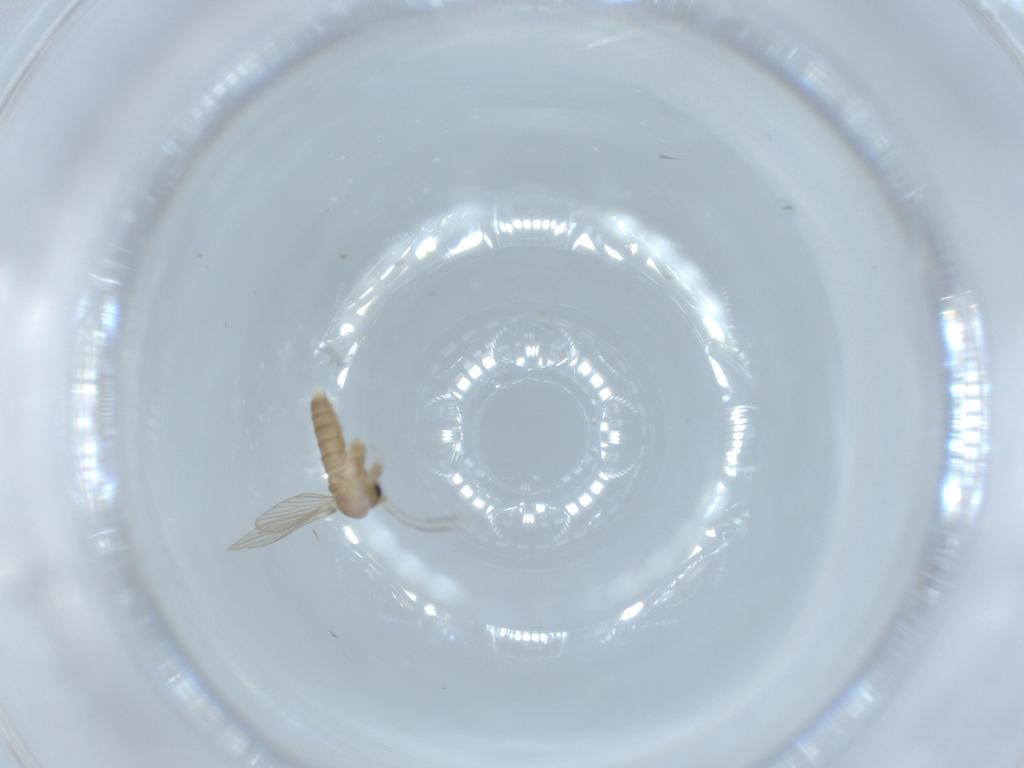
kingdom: Animalia
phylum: Arthropoda
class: Insecta
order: Diptera
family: Psychodidae
